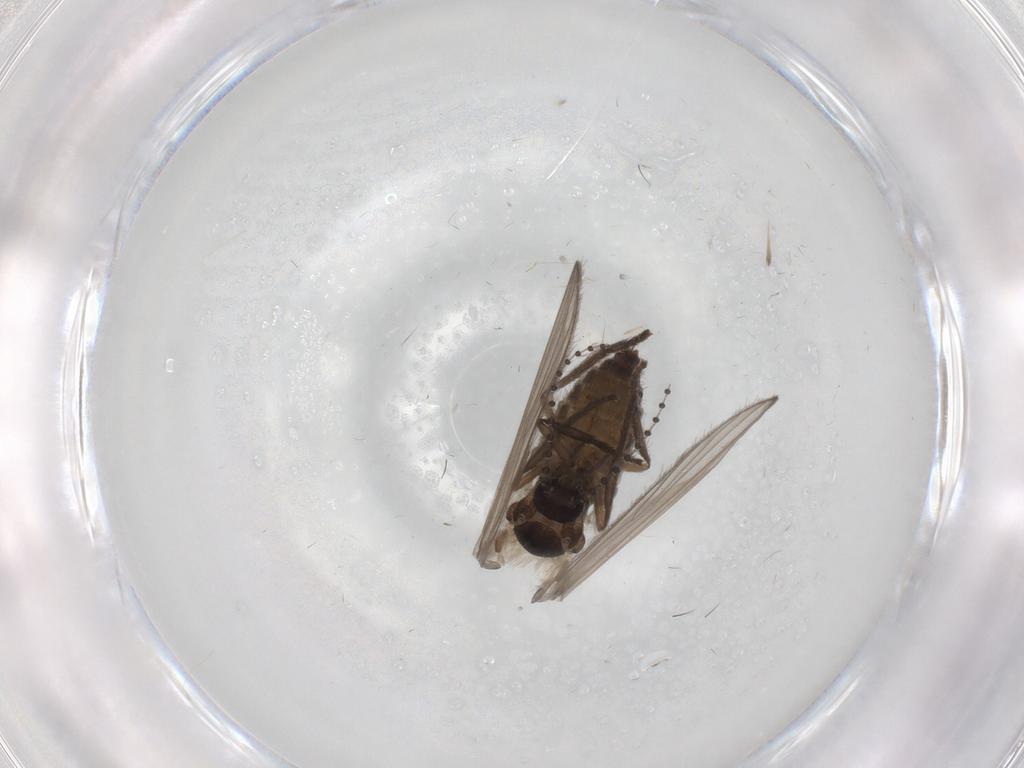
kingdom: Animalia
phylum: Arthropoda
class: Insecta
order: Diptera
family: Psychodidae
